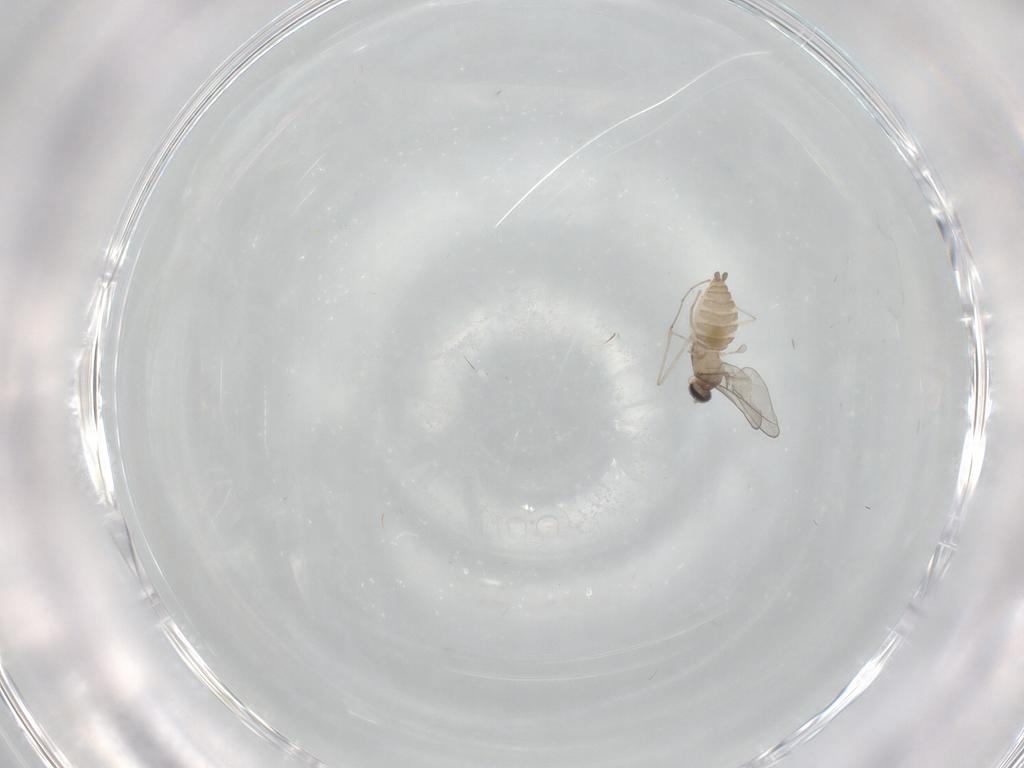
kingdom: Animalia
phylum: Arthropoda
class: Insecta
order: Diptera
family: Cecidomyiidae
